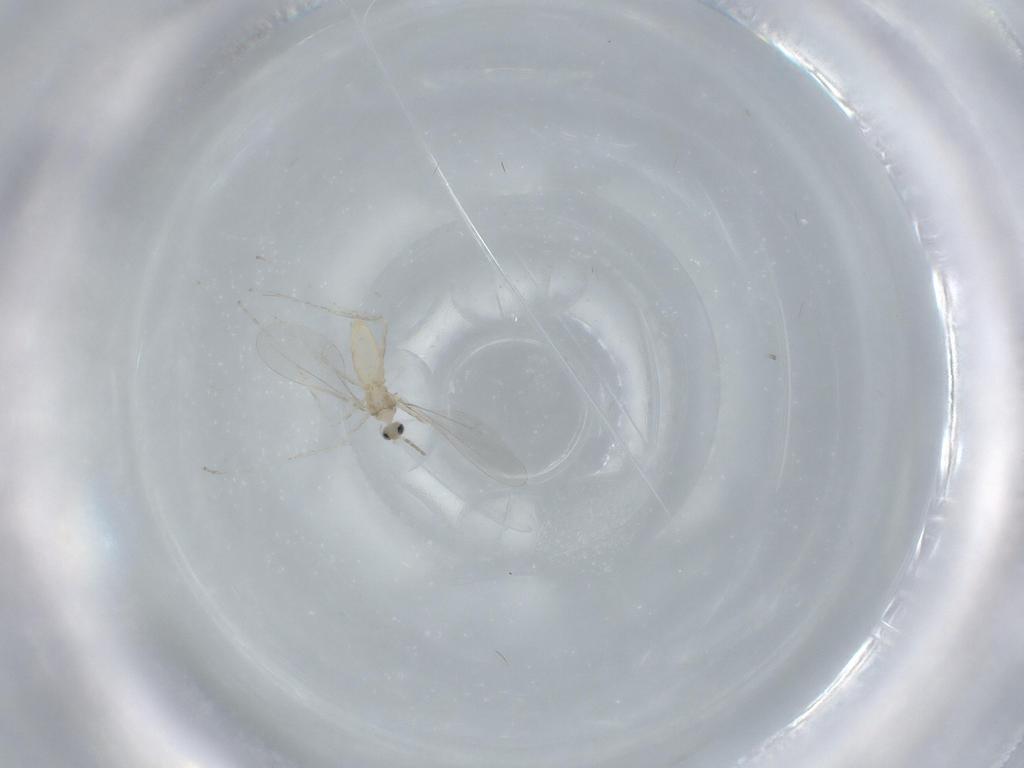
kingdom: Animalia
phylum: Arthropoda
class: Insecta
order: Diptera
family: Cecidomyiidae
